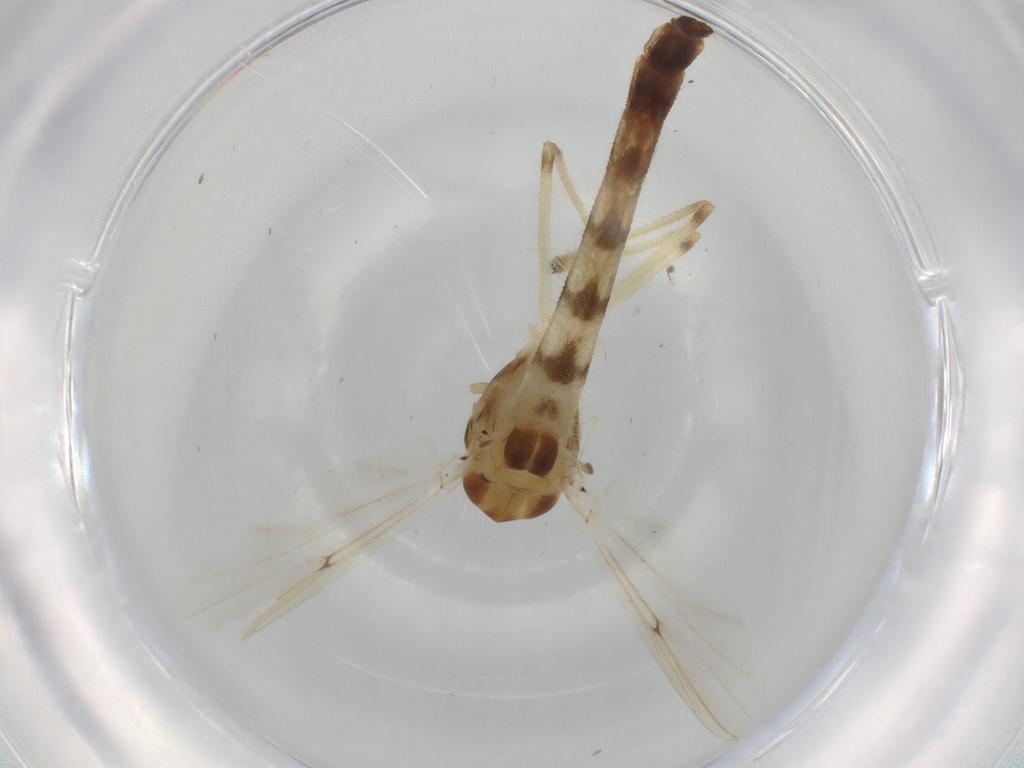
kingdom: Animalia
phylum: Arthropoda
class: Insecta
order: Diptera
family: Chironomidae
